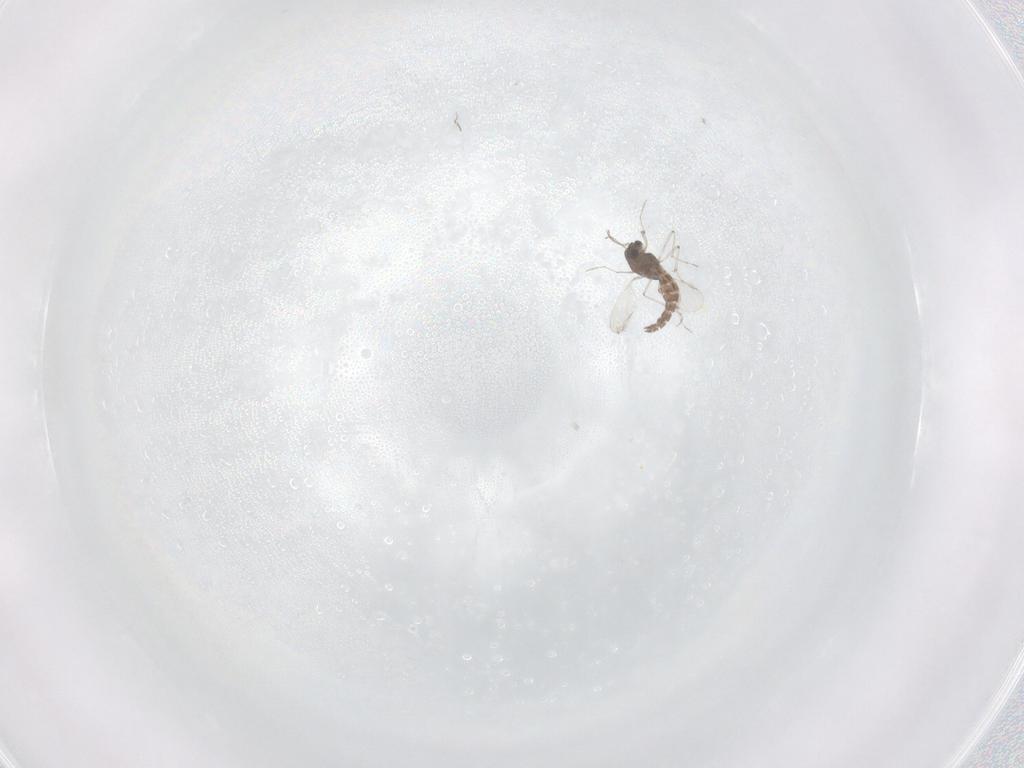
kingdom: Animalia
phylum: Arthropoda
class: Insecta
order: Diptera
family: Chironomidae
